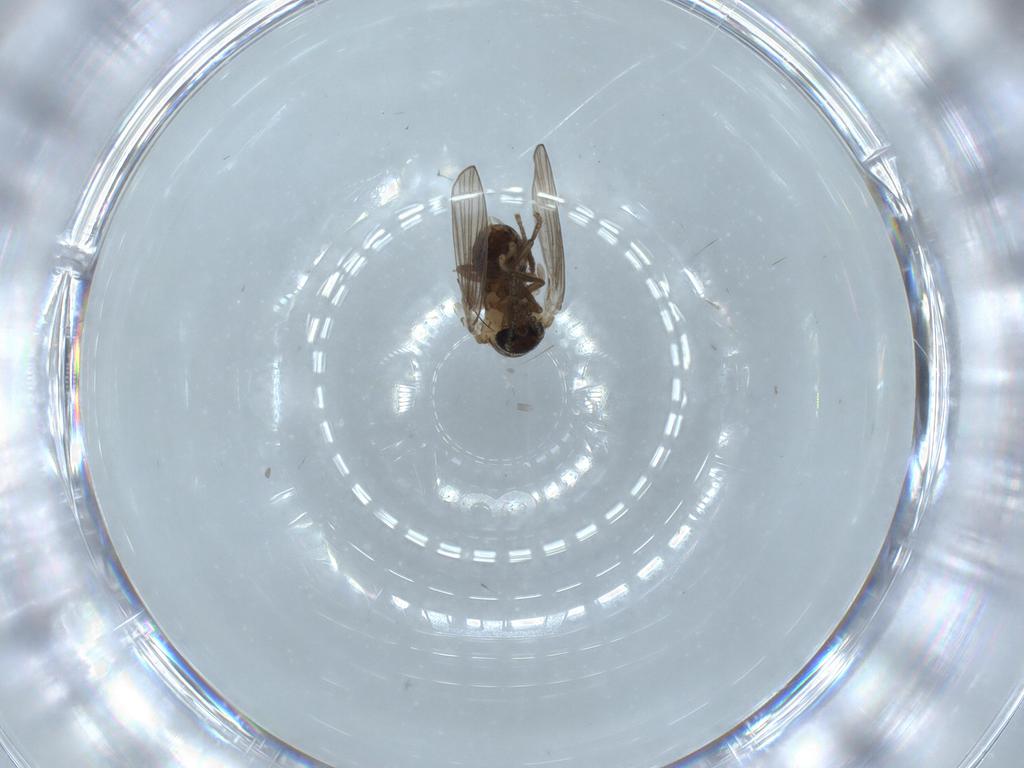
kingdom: Animalia
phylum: Arthropoda
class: Insecta
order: Diptera
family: Psychodidae
